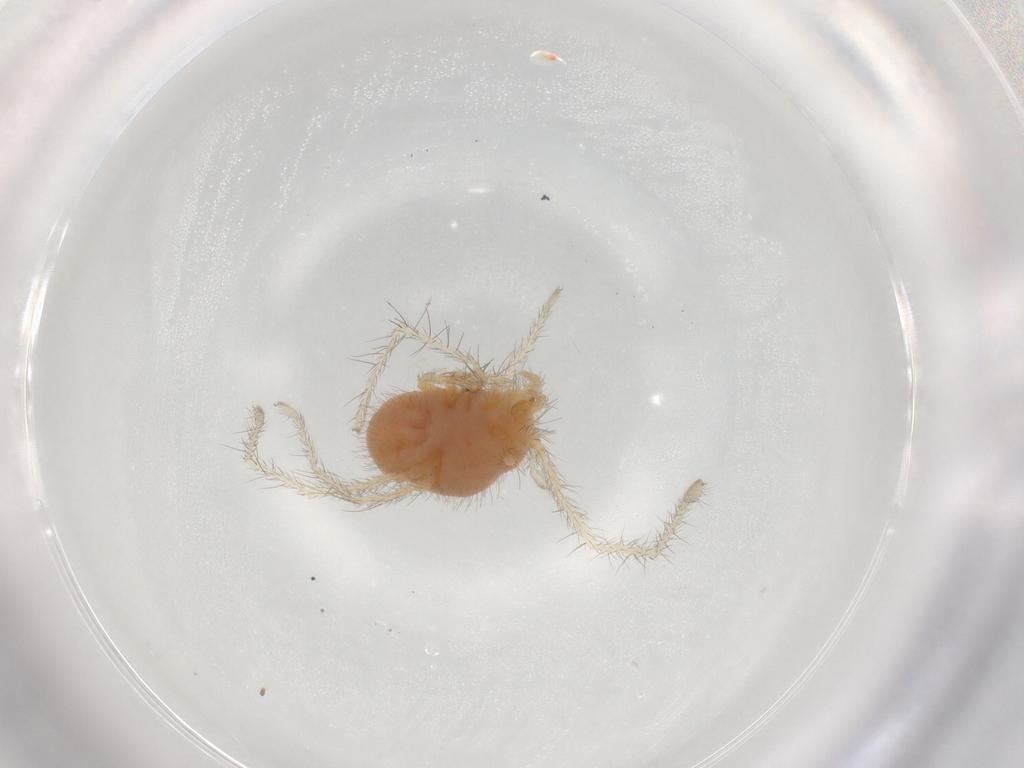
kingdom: Animalia
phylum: Arthropoda
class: Arachnida
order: Trombidiformes
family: Erythraeidae
